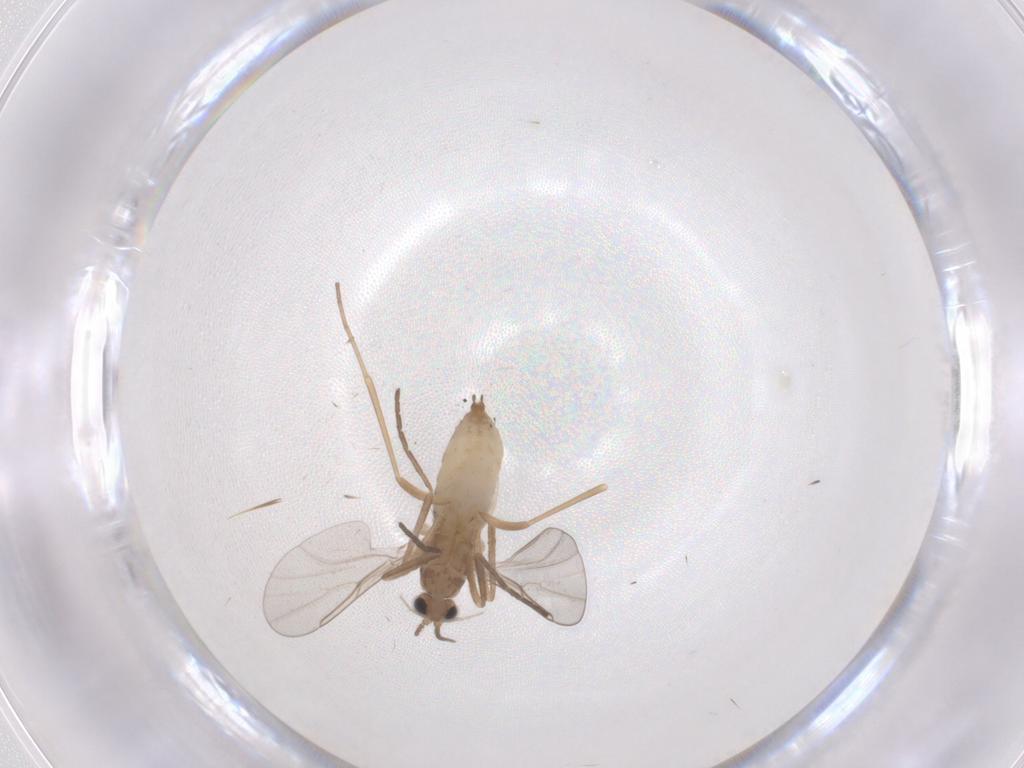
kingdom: Animalia
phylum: Arthropoda
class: Insecta
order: Diptera
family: Cecidomyiidae
